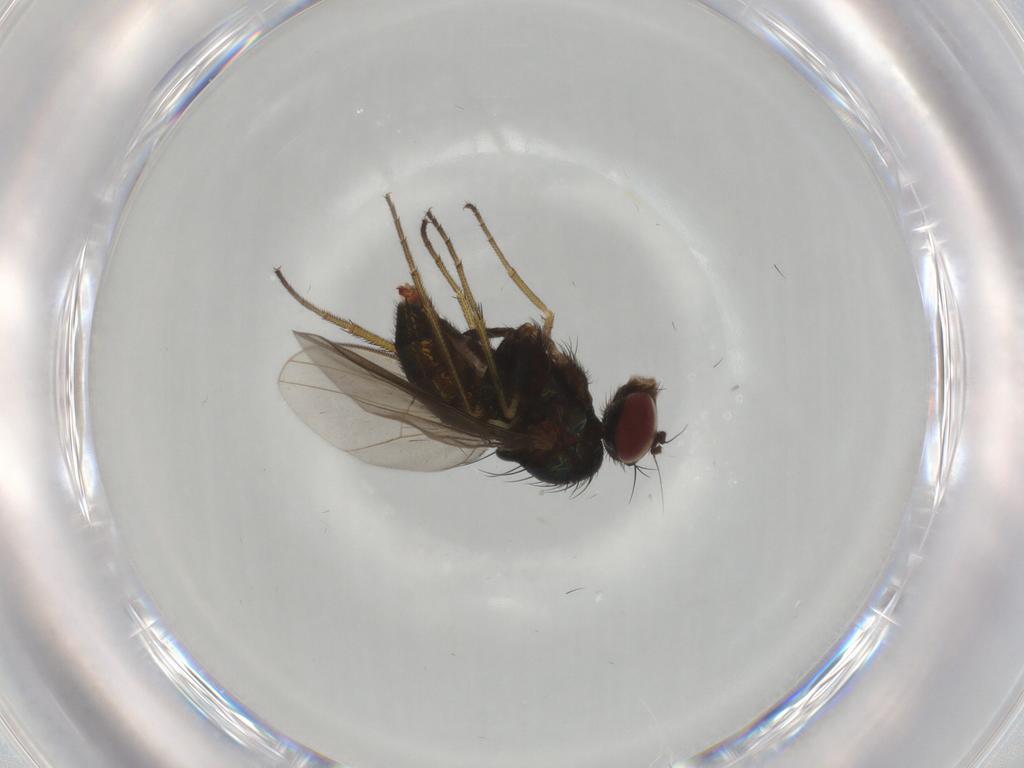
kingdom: Animalia
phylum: Arthropoda
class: Insecta
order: Diptera
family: Dolichopodidae
